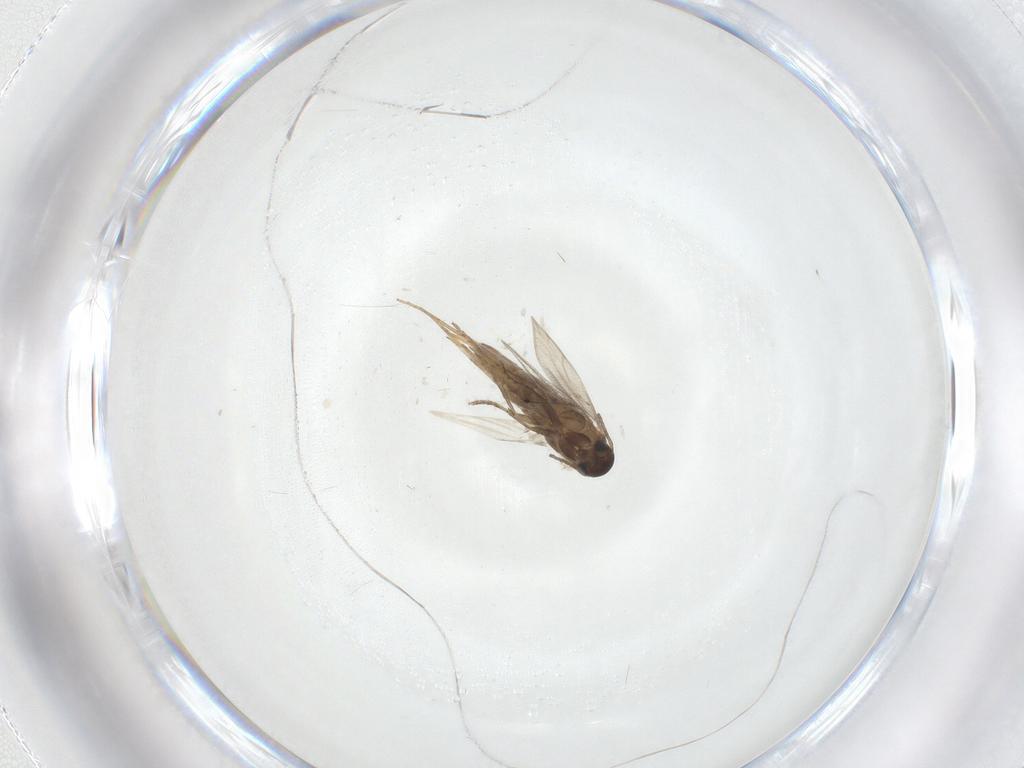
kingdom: Animalia
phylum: Arthropoda
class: Insecta
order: Lepidoptera
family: Heliozelidae
